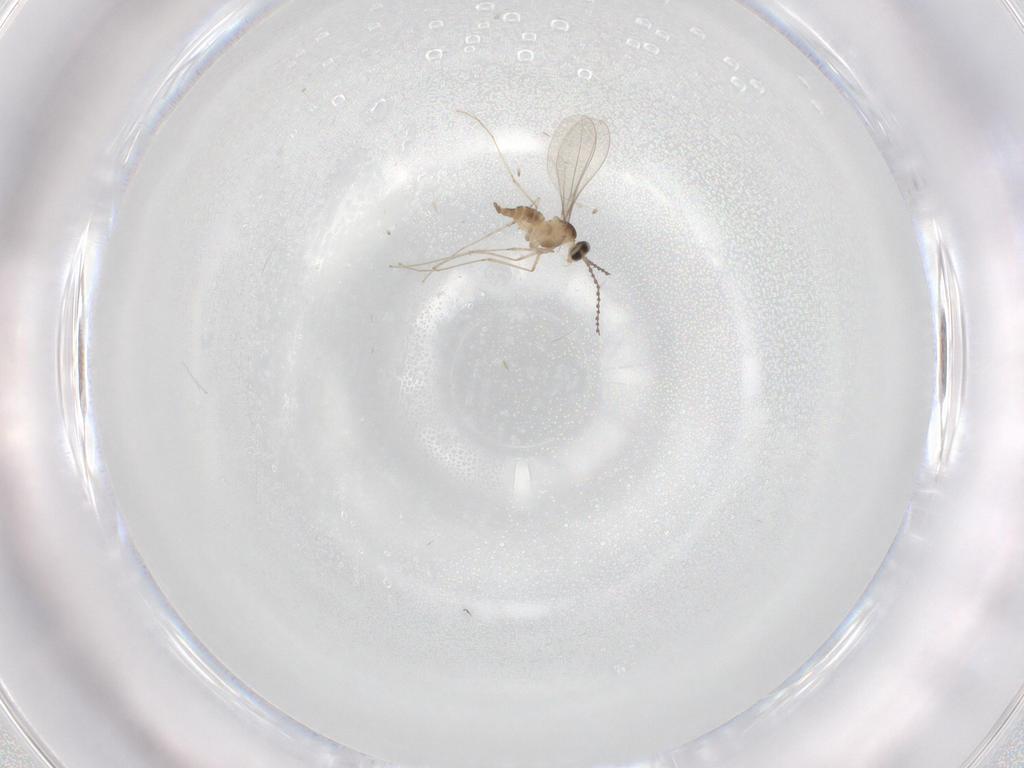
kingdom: Animalia
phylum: Arthropoda
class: Insecta
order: Diptera
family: Cecidomyiidae
